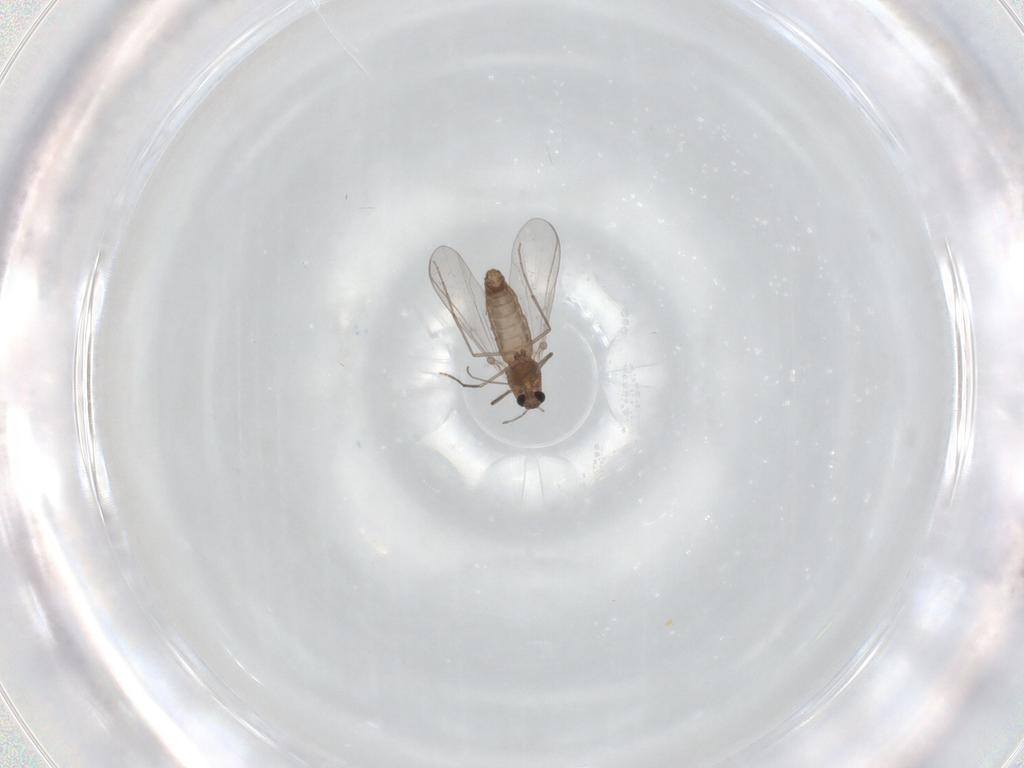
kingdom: Animalia
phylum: Arthropoda
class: Insecta
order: Diptera
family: Chironomidae
